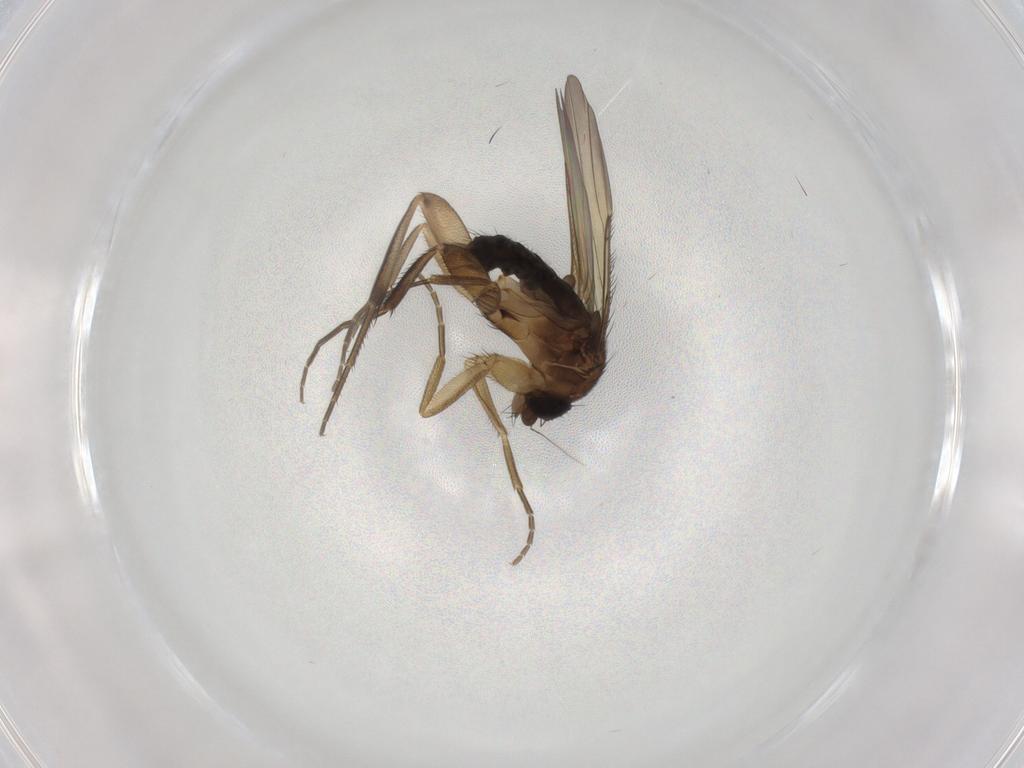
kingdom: Animalia
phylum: Arthropoda
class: Insecta
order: Diptera
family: Phoridae
